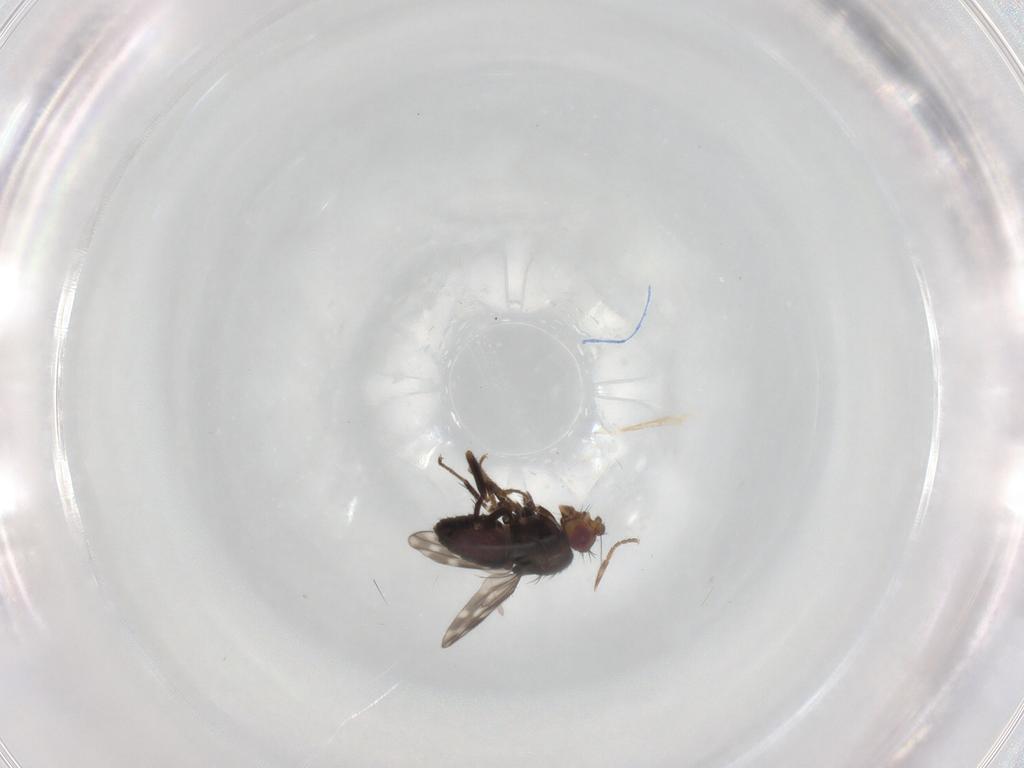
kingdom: Animalia
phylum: Arthropoda
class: Insecta
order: Diptera
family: Sphaeroceridae
